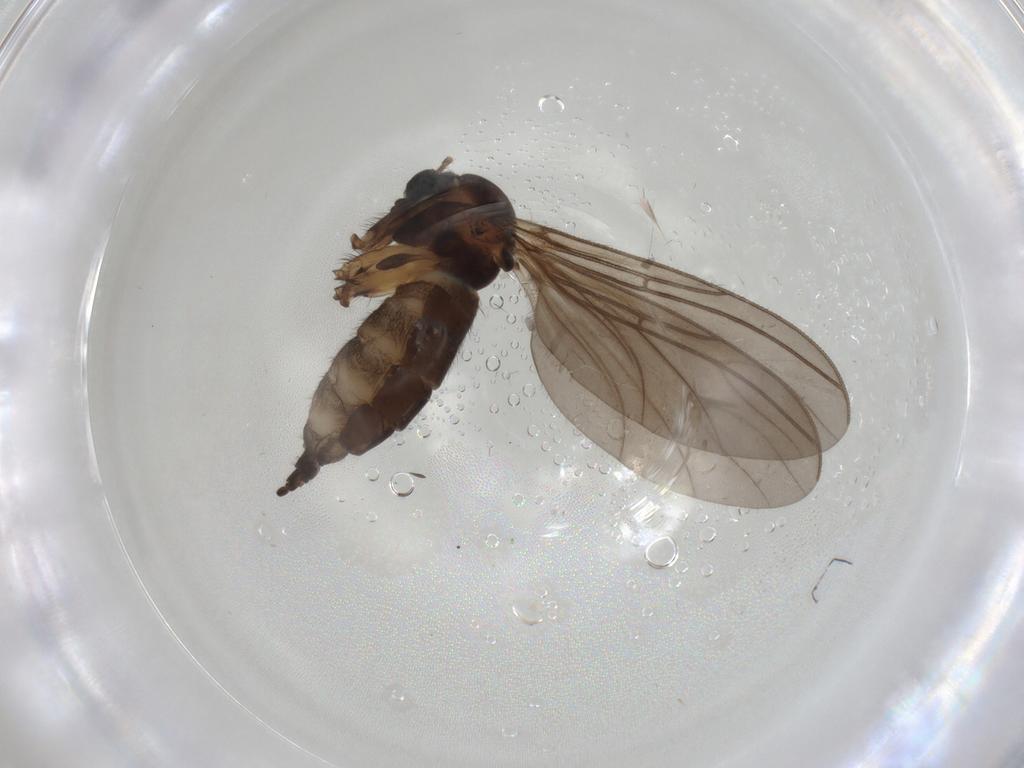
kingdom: Animalia
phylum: Arthropoda
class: Insecta
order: Diptera
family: Sciaridae
